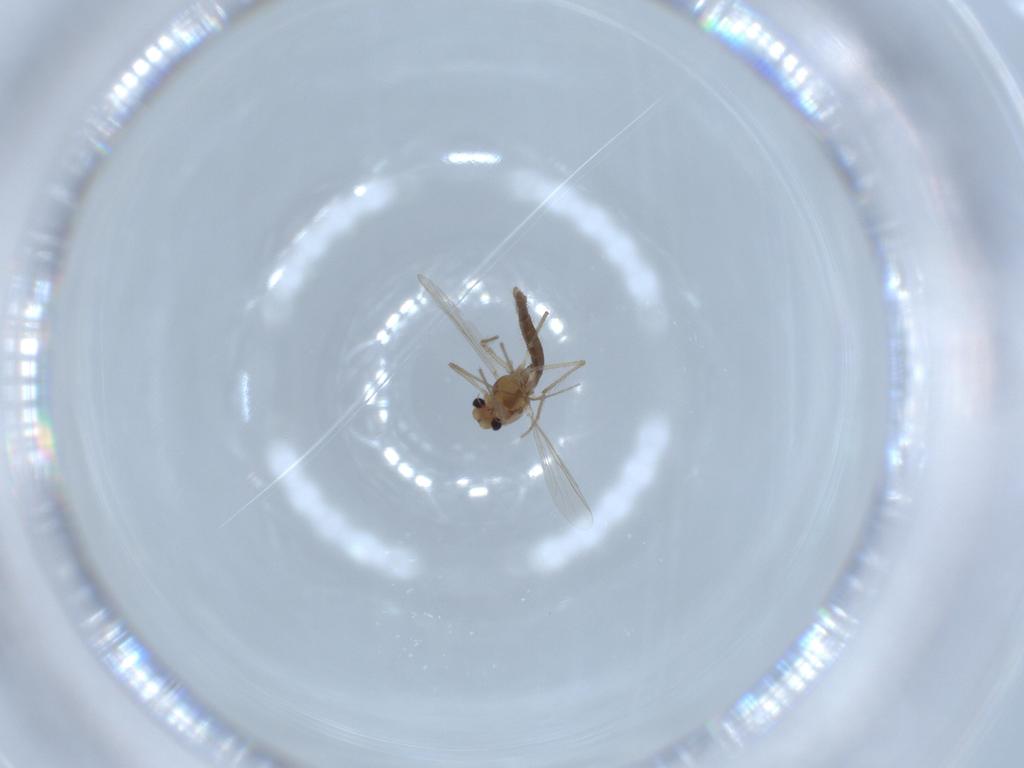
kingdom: Animalia
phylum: Arthropoda
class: Insecta
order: Diptera
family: Chironomidae
